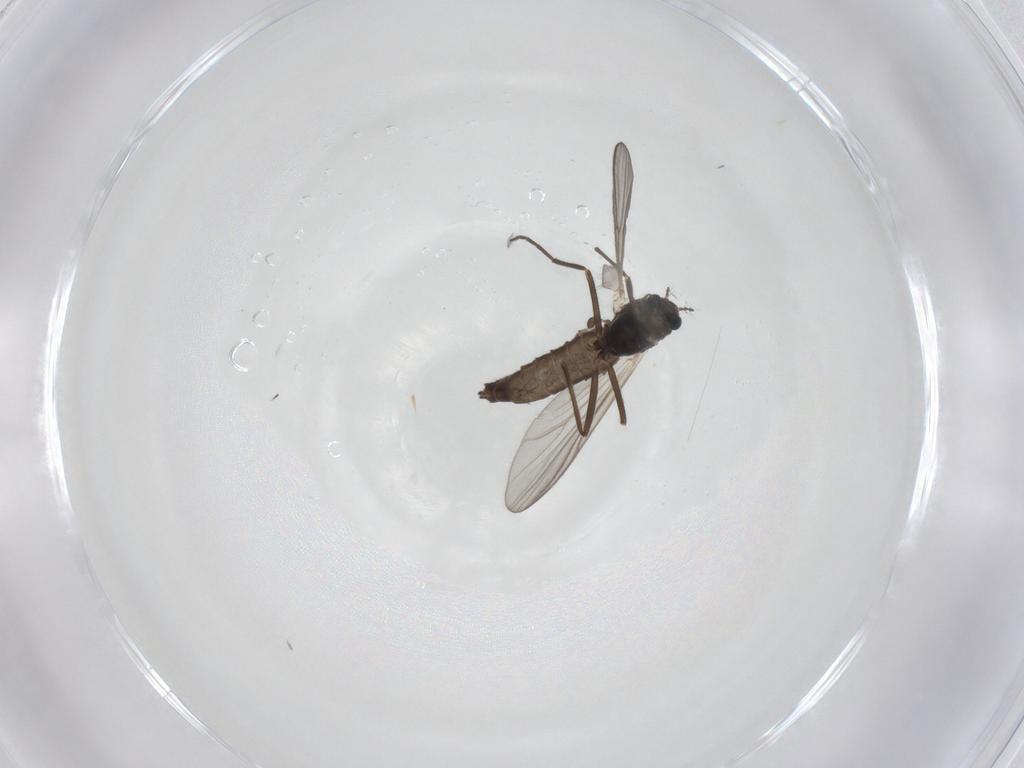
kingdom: Animalia
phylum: Arthropoda
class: Insecta
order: Diptera
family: Chironomidae
